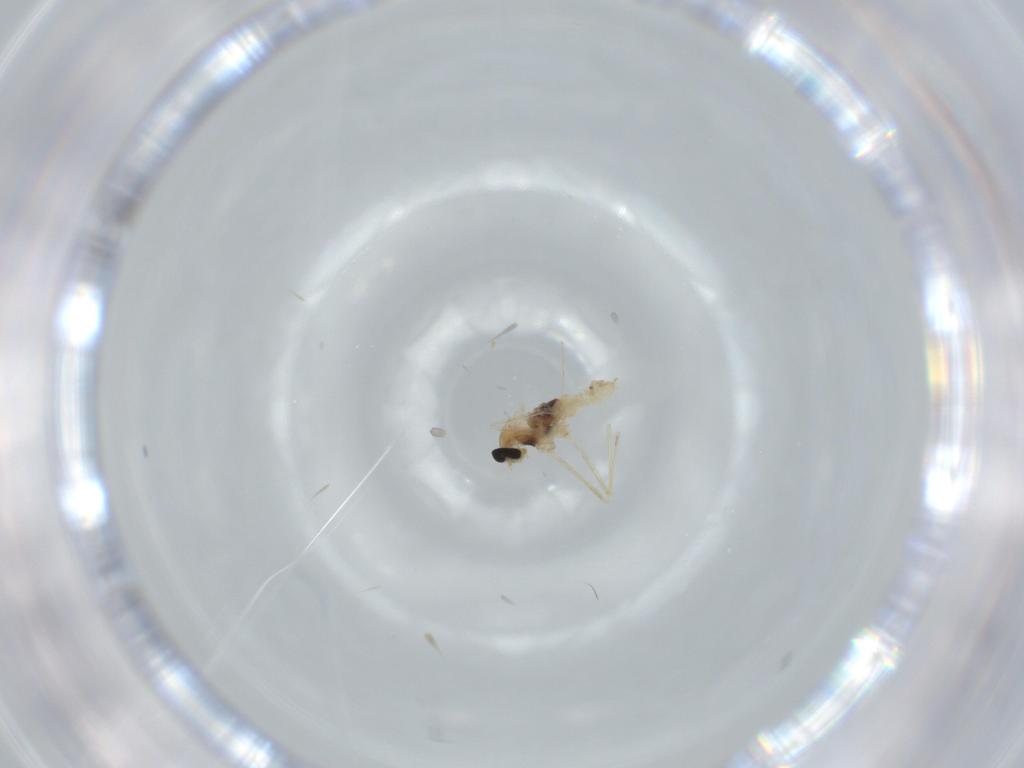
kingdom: Animalia
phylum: Arthropoda
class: Insecta
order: Diptera
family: Cecidomyiidae
